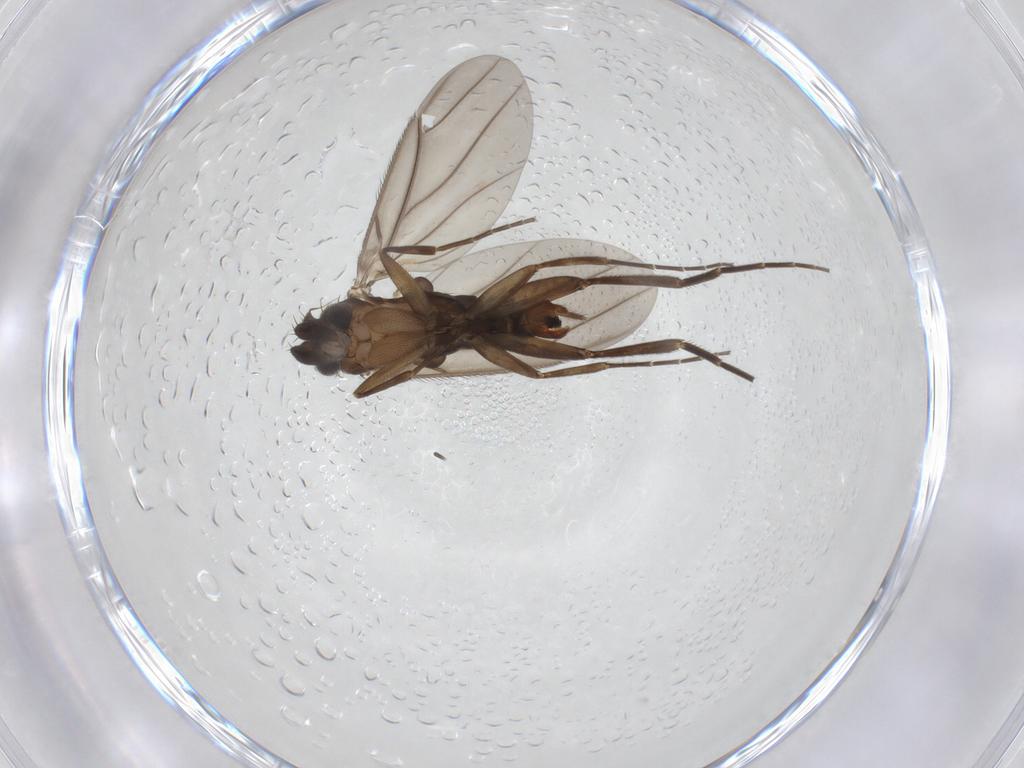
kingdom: Animalia
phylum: Arthropoda
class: Insecta
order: Diptera
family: Phoridae
